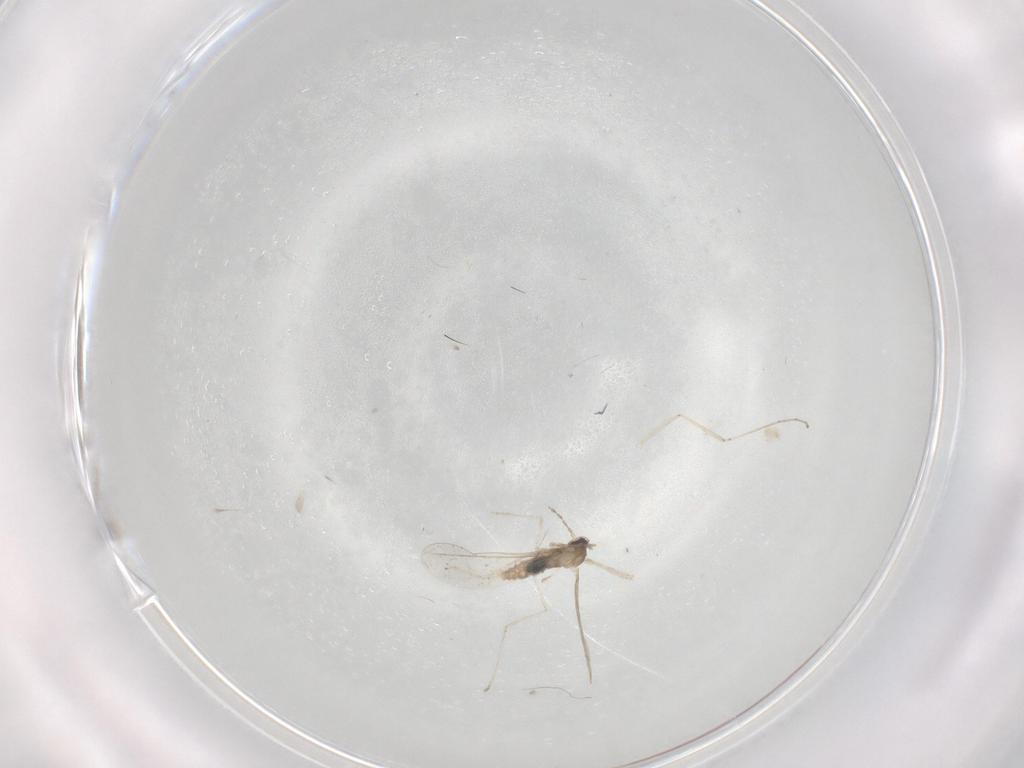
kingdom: Animalia
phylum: Arthropoda
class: Insecta
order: Diptera
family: Cecidomyiidae
